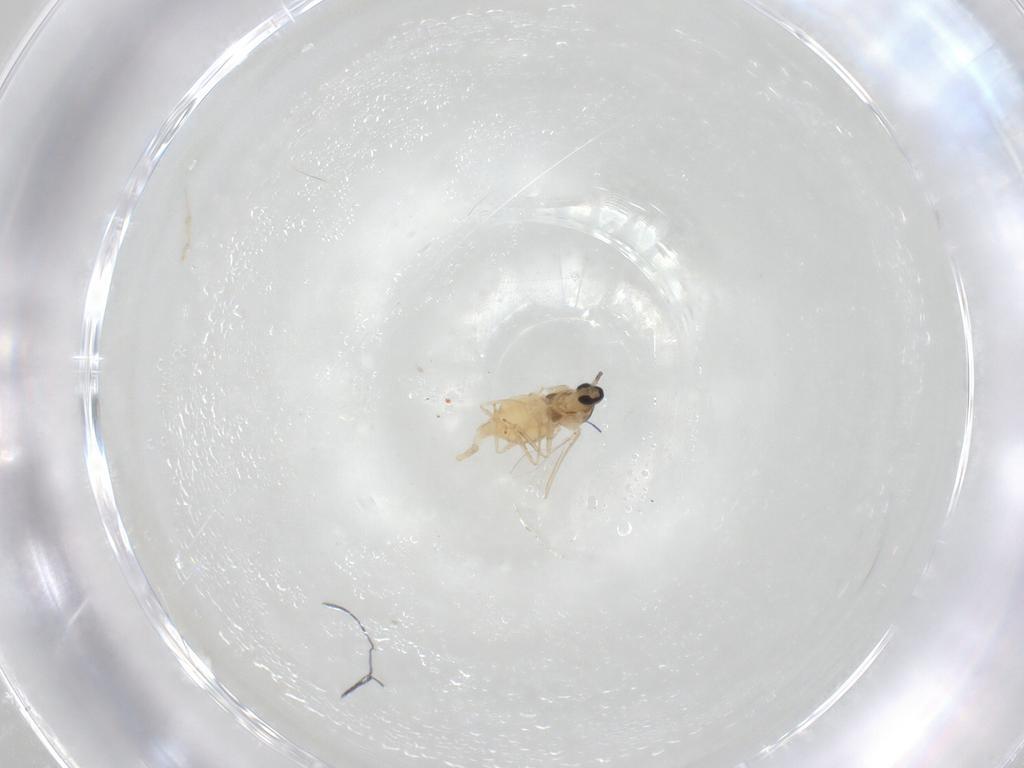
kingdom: Animalia
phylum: Arthropoda
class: Insecta
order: Diptera
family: Cecidomyiidae
